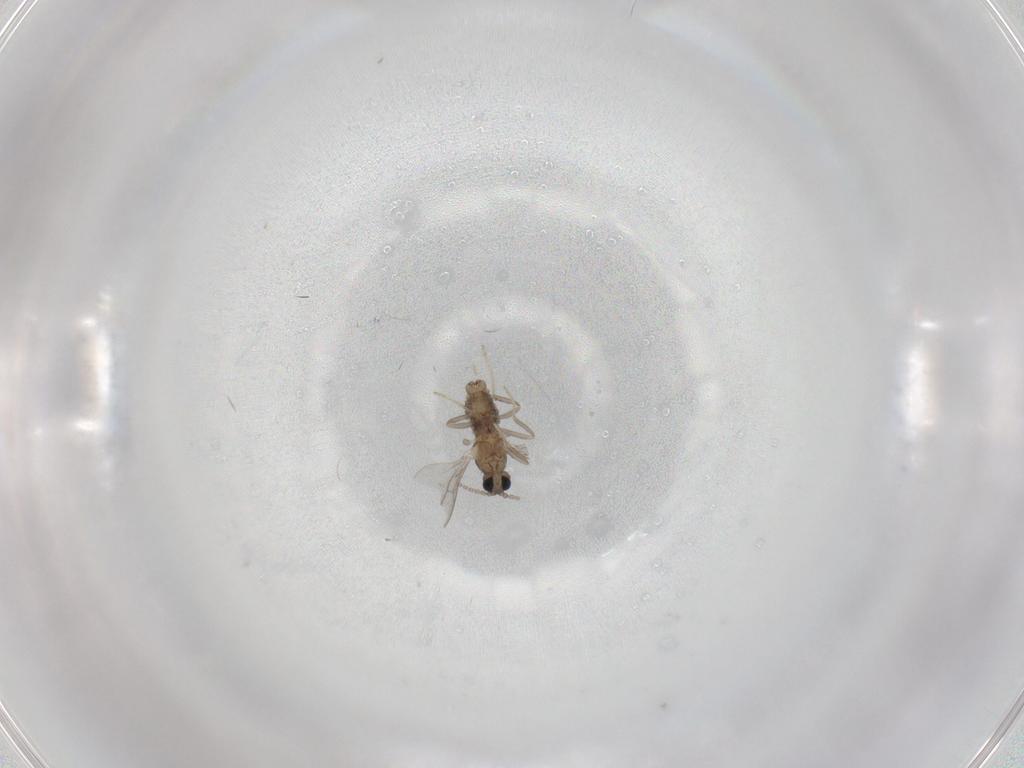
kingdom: Animalia
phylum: Arthropoda
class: Insecta
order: Diptera
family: Cecidomyiidae
